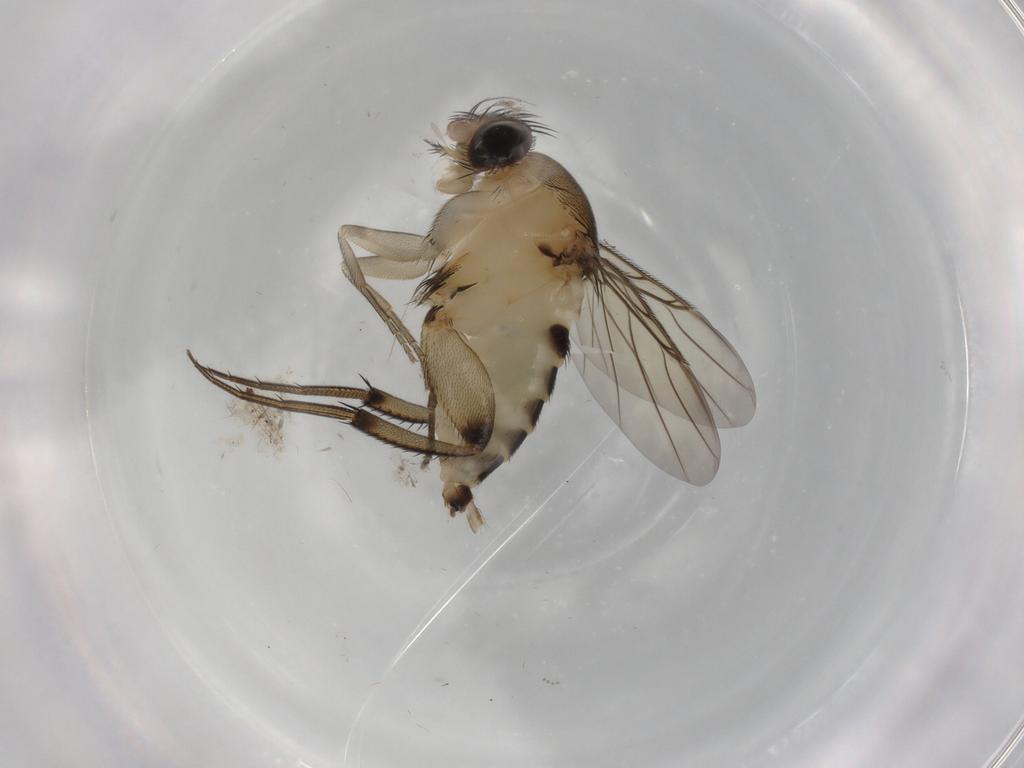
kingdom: Animalia
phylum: Arthropoda
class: Insecta
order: Diptera
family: Phoridae
